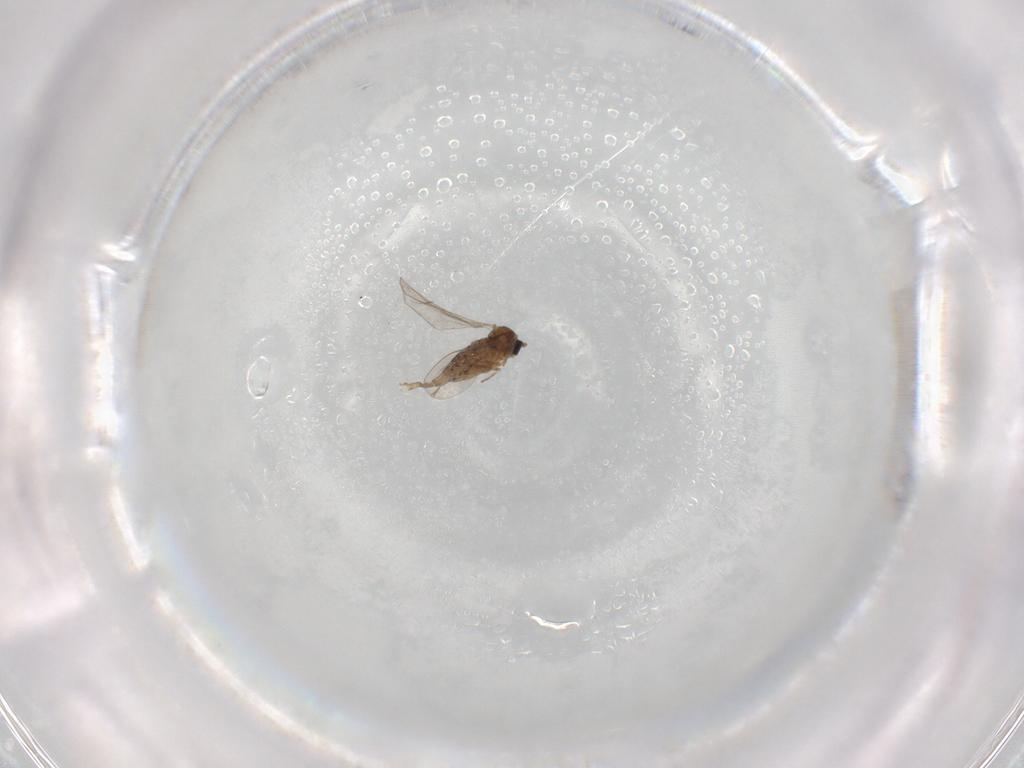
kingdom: Animalia
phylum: Arthropoda
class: Insecta
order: Diptera
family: Cecidomyiidae
